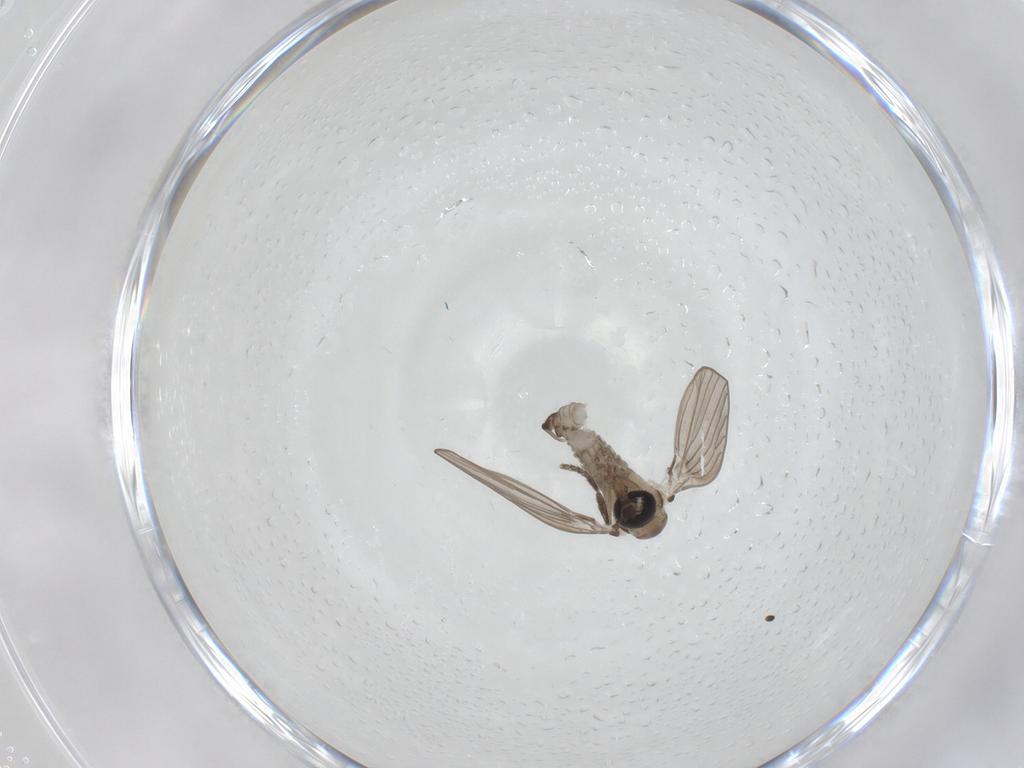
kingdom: Animalia
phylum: Arthropoda
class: Insecta
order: Diptera
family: Psychodidae
